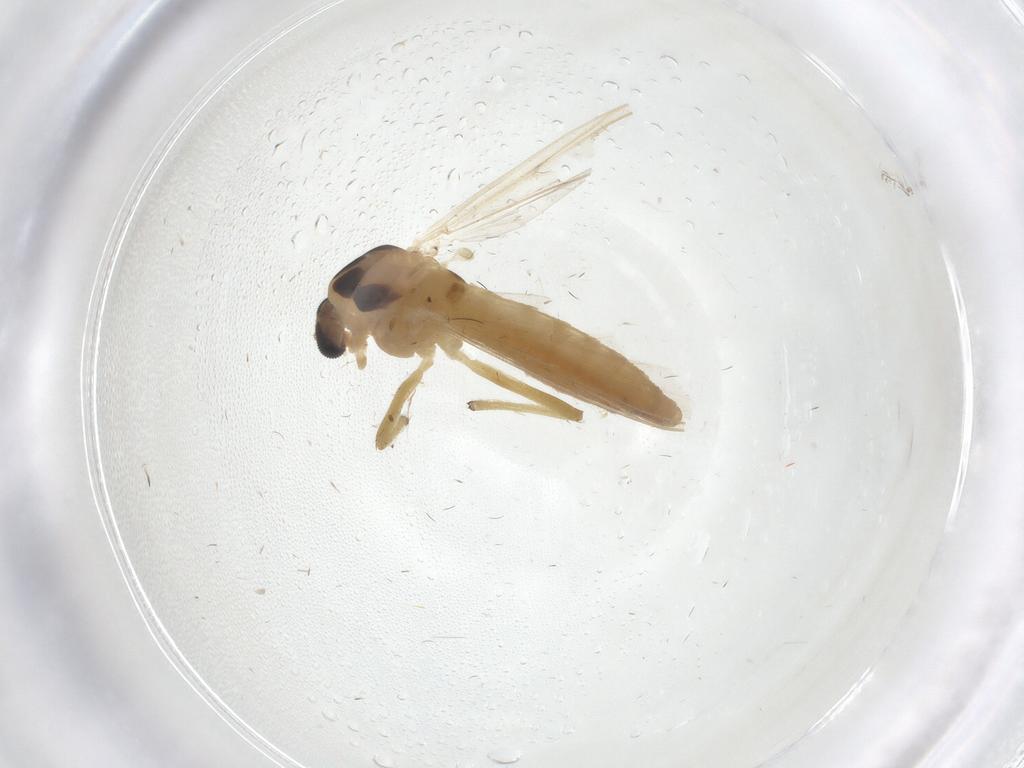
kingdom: Animalia
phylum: Arthropoda
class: Insecta
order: Diptera
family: Chironomidae
